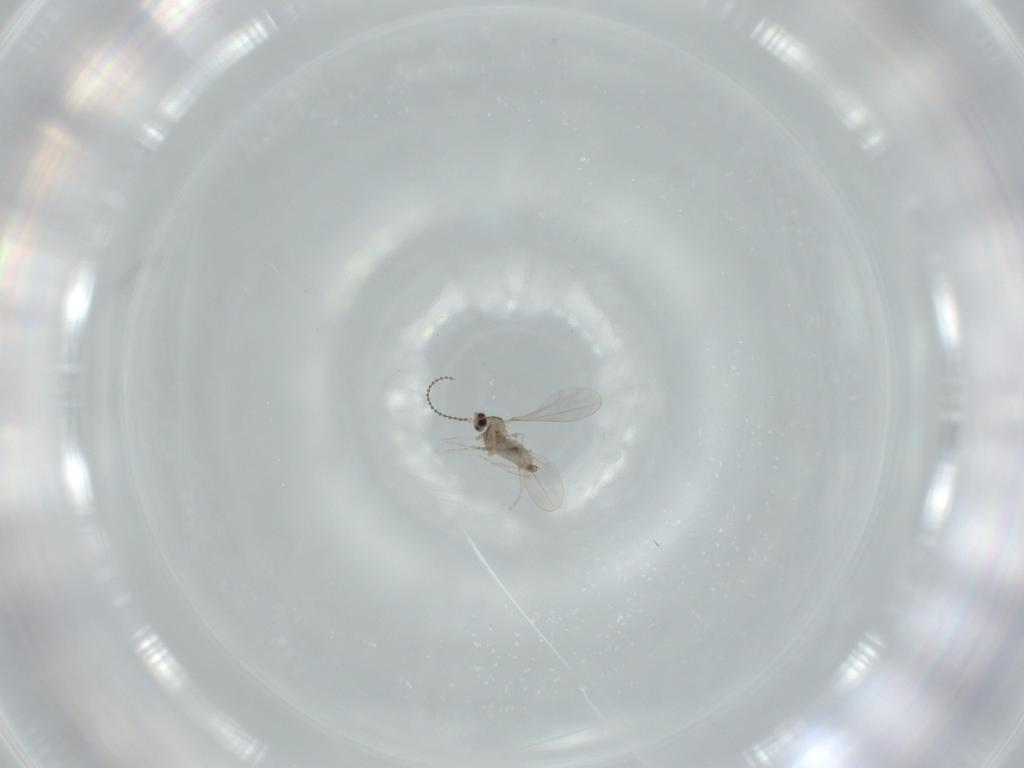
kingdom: Animalia
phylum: Arthropoda
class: Insecta
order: Diptera
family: Cecidomyiidae
